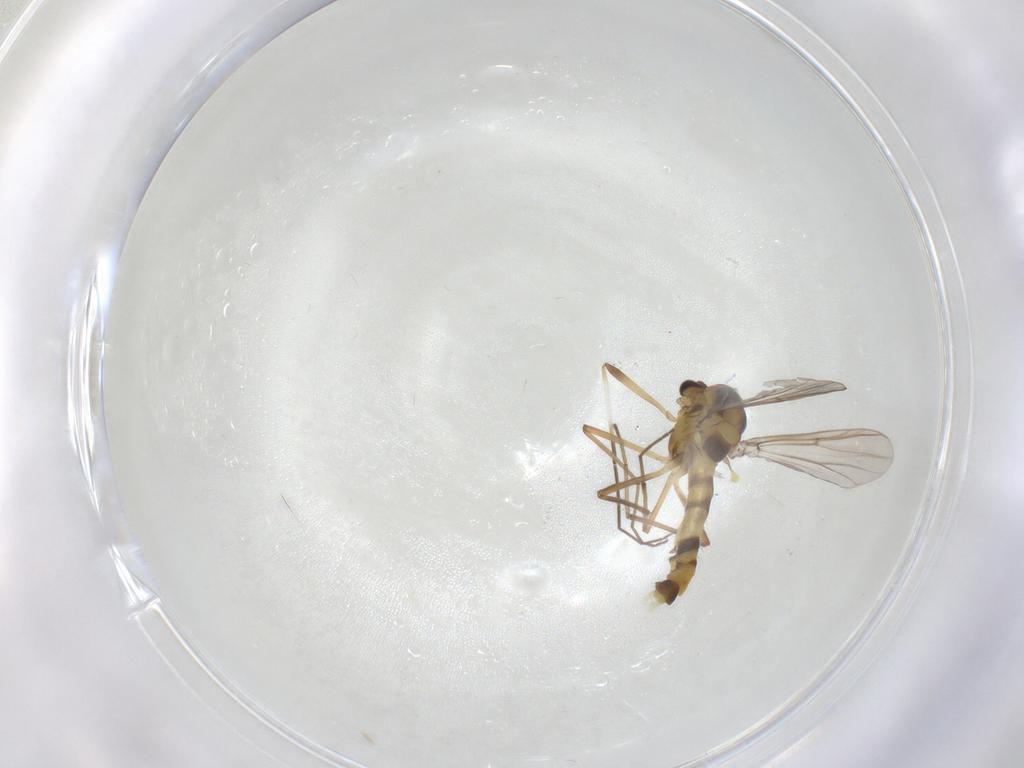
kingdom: Animalia
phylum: Arthropoda
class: Insecta
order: Diptera
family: Chironomidae
